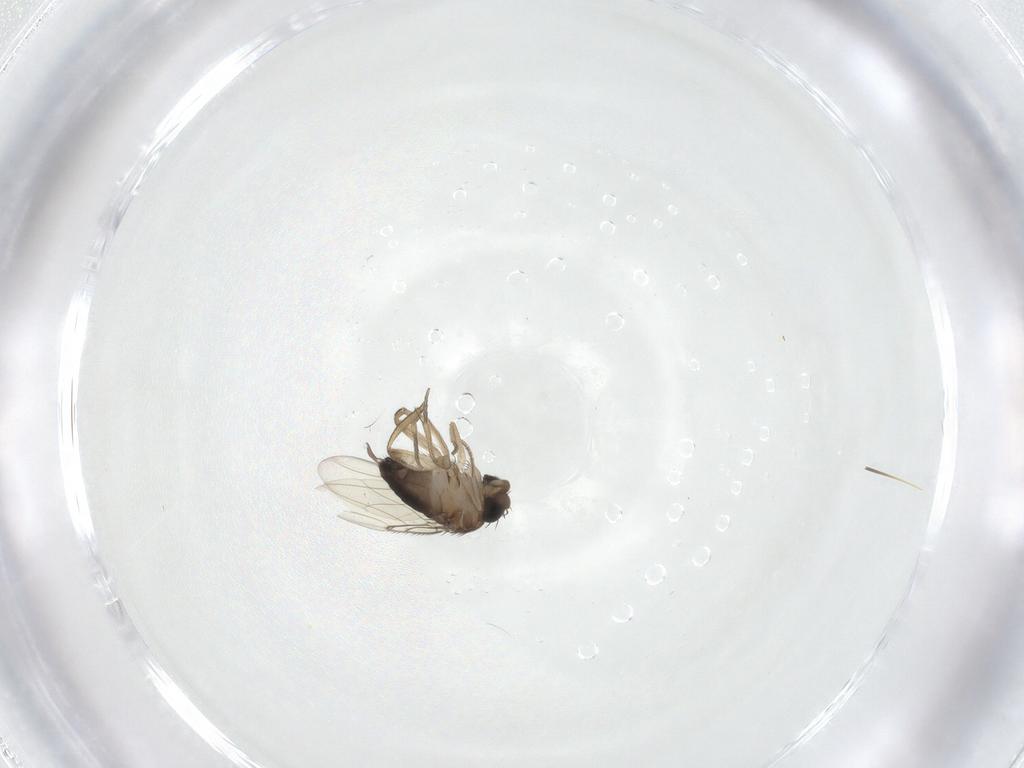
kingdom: Animalia
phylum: Arthropoda
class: Insecta
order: Diptera
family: Phoridae
